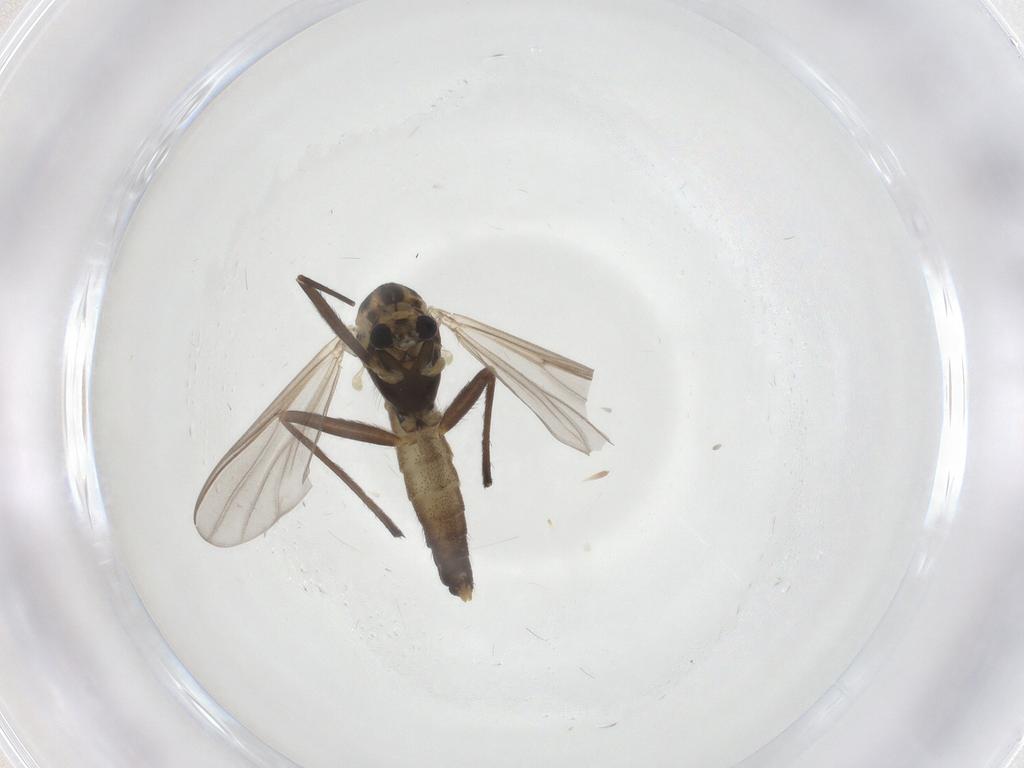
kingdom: Animalia
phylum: Arthropoda
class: Insecta
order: Diptera
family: Chironomidae
